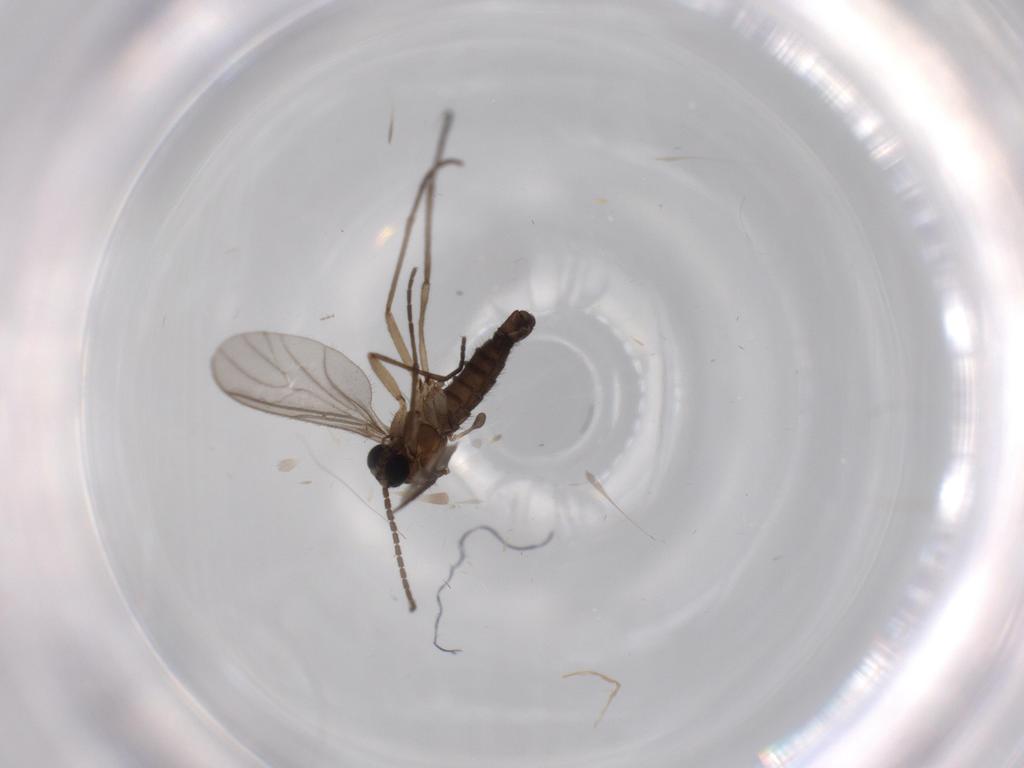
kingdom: Animalia
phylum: Arthropoda
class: Insecta
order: Diptera
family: Sciaridae
